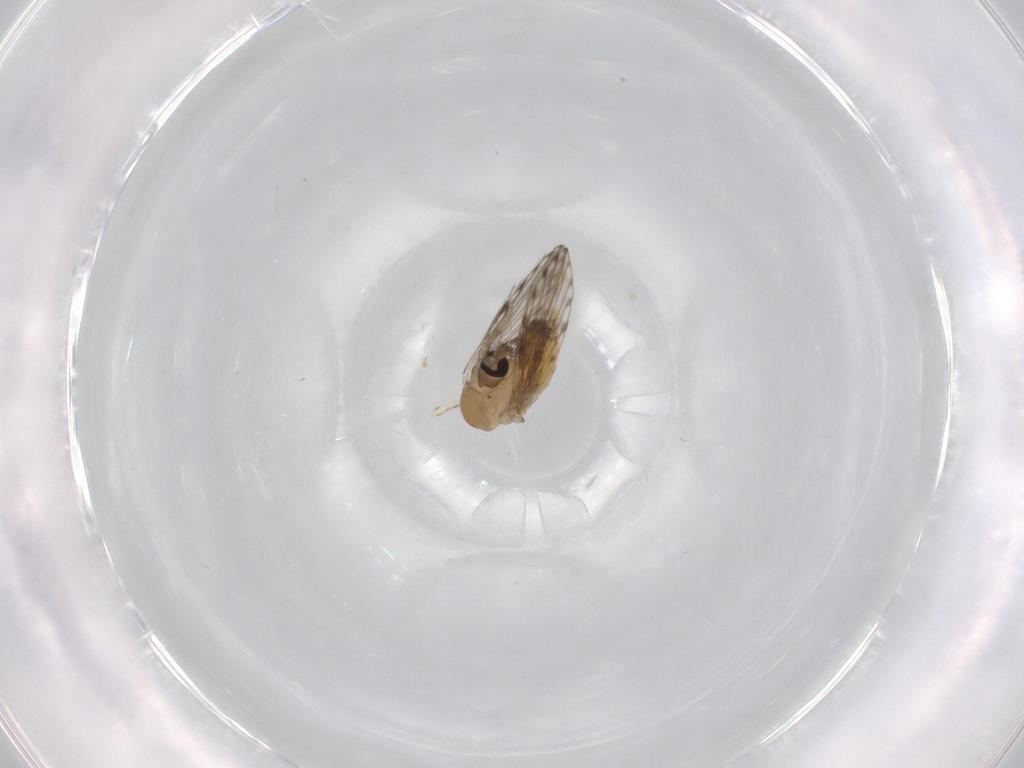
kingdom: Animalia
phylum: Arthropoda
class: Insecta
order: Diptera
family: Psychodidae
